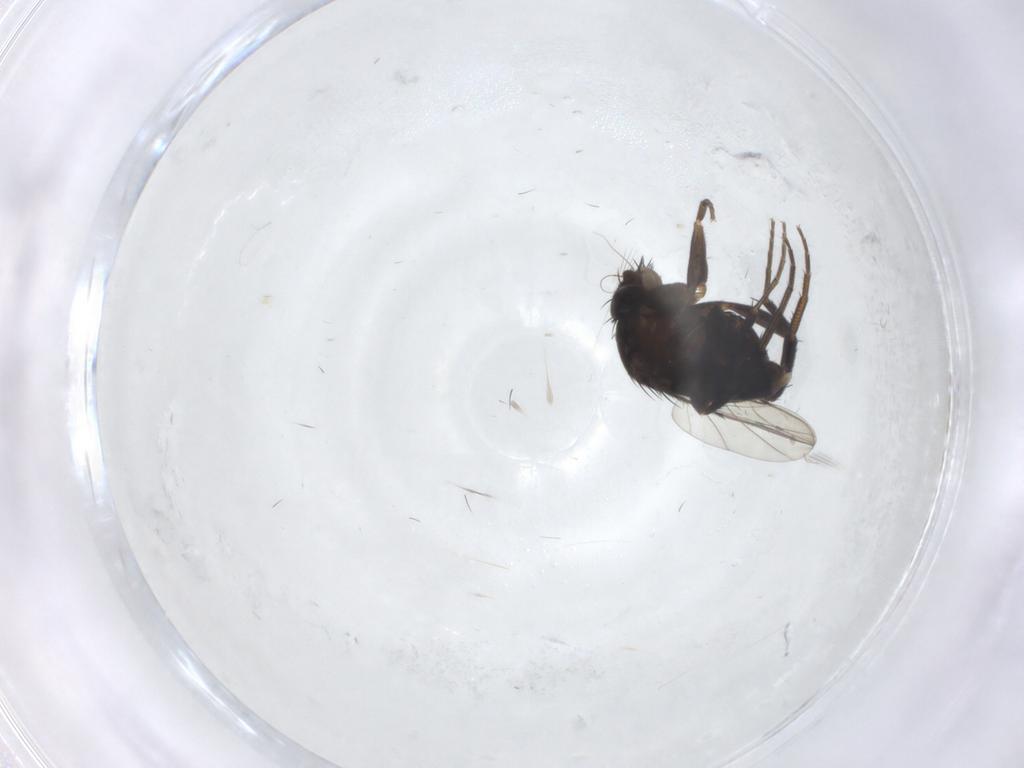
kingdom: Animalia
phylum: Arthropoda
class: Insecta
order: Diptera
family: Phoridae
